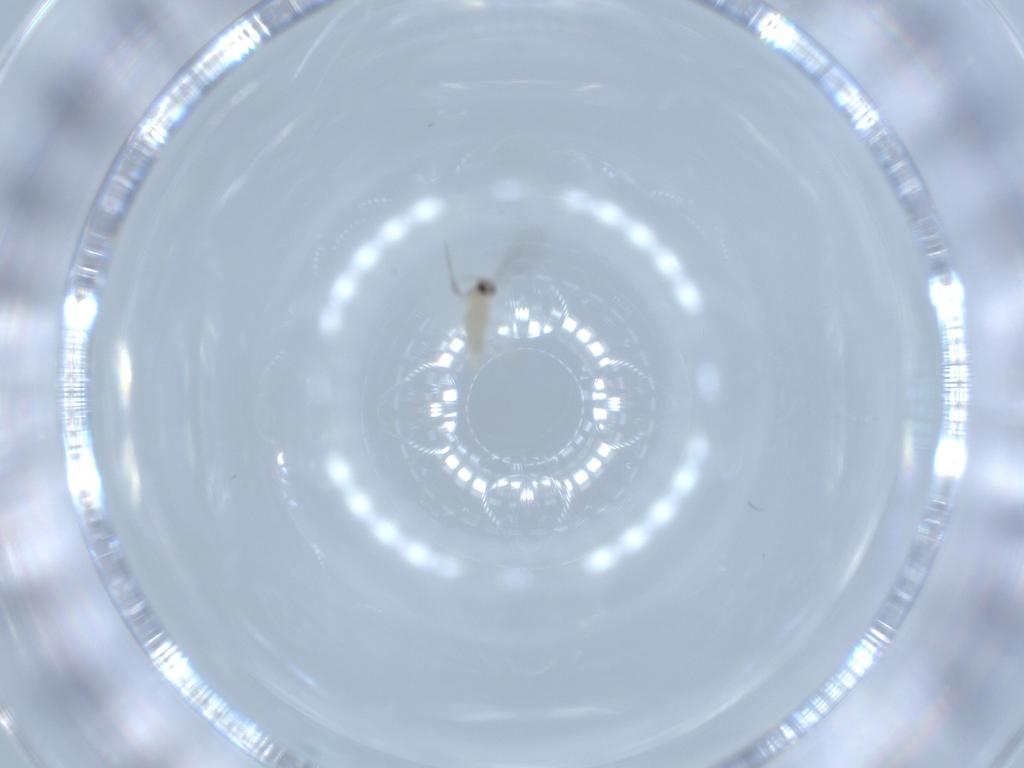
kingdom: Animalia
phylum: Arthropoda
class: Insecta
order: Diptera
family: Cecidomyiidae
